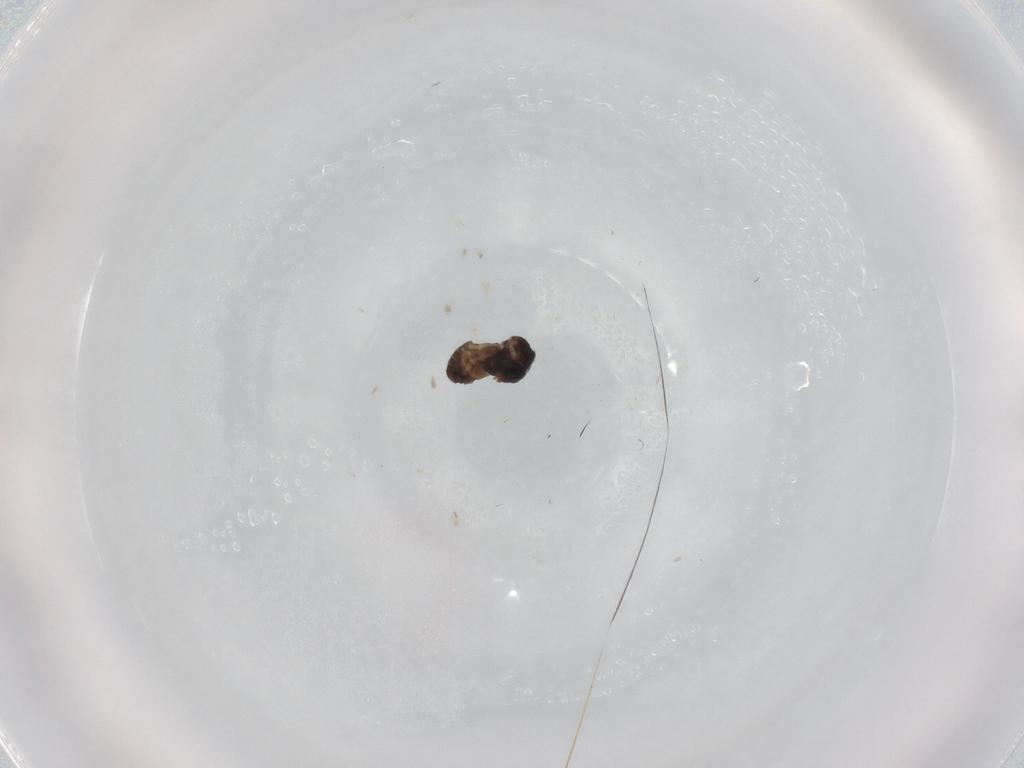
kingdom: Animalia
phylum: Arthropoda
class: Insecta
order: Diptera
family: Ceratopogonidae
